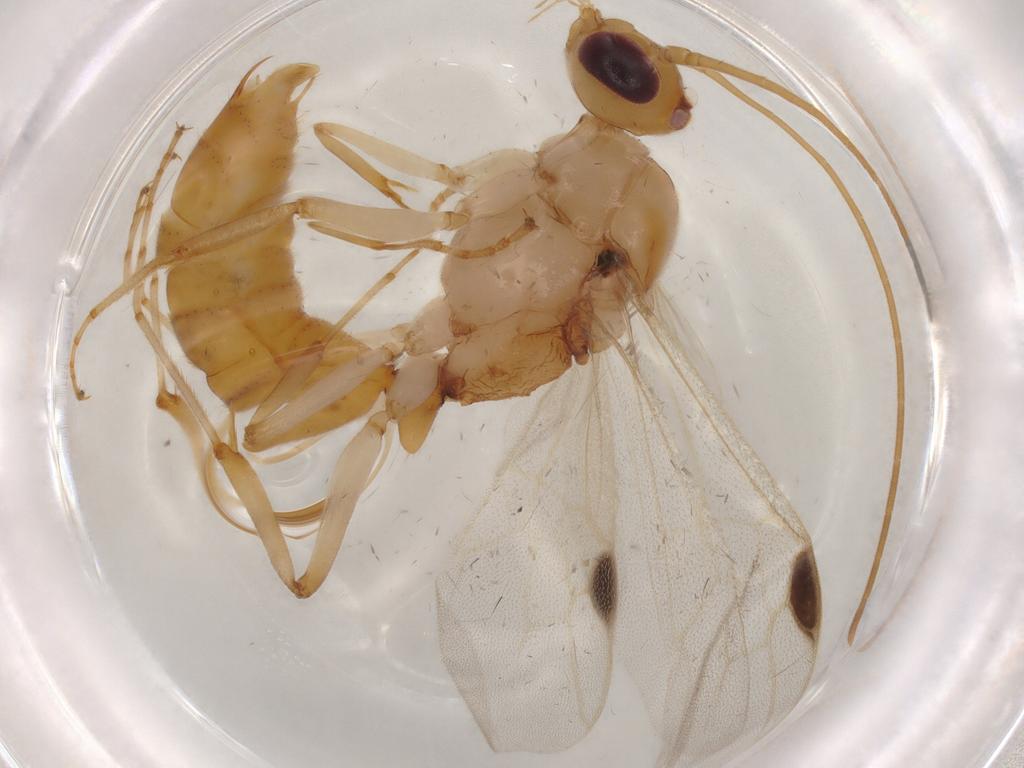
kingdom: Animalia
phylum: Arthropoda
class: Insecta
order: Hymenoptera
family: Formicidae
